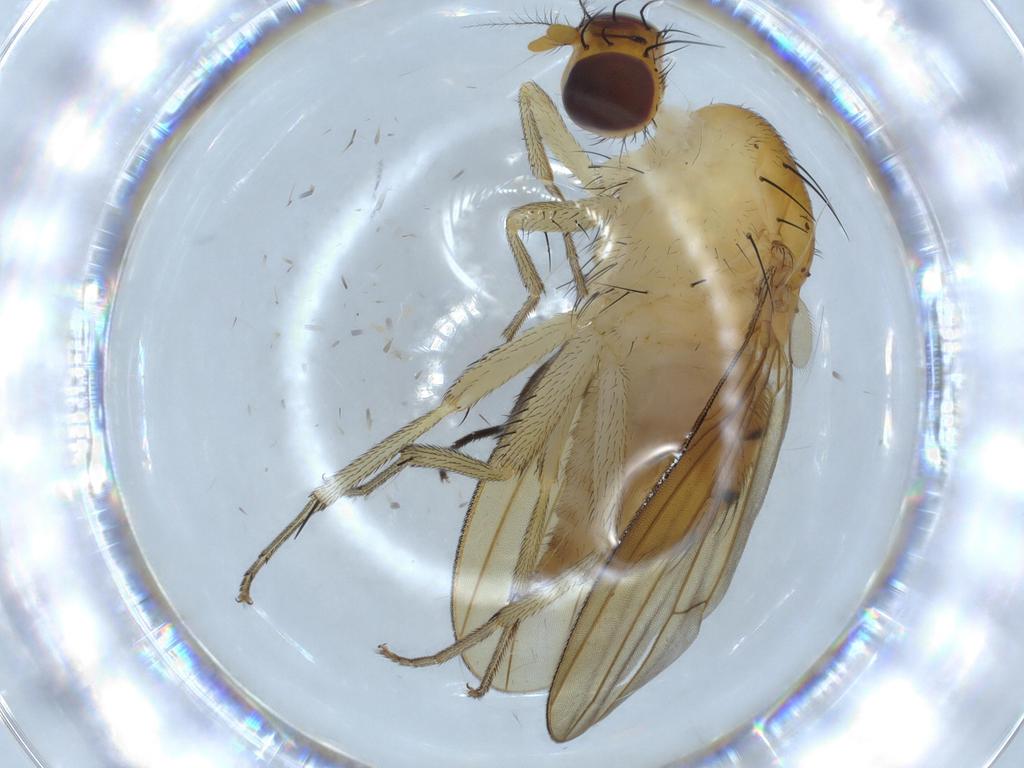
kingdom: Animalia
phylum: Arthropoda
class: Insecta
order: Diptera
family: Anthomyiidae
